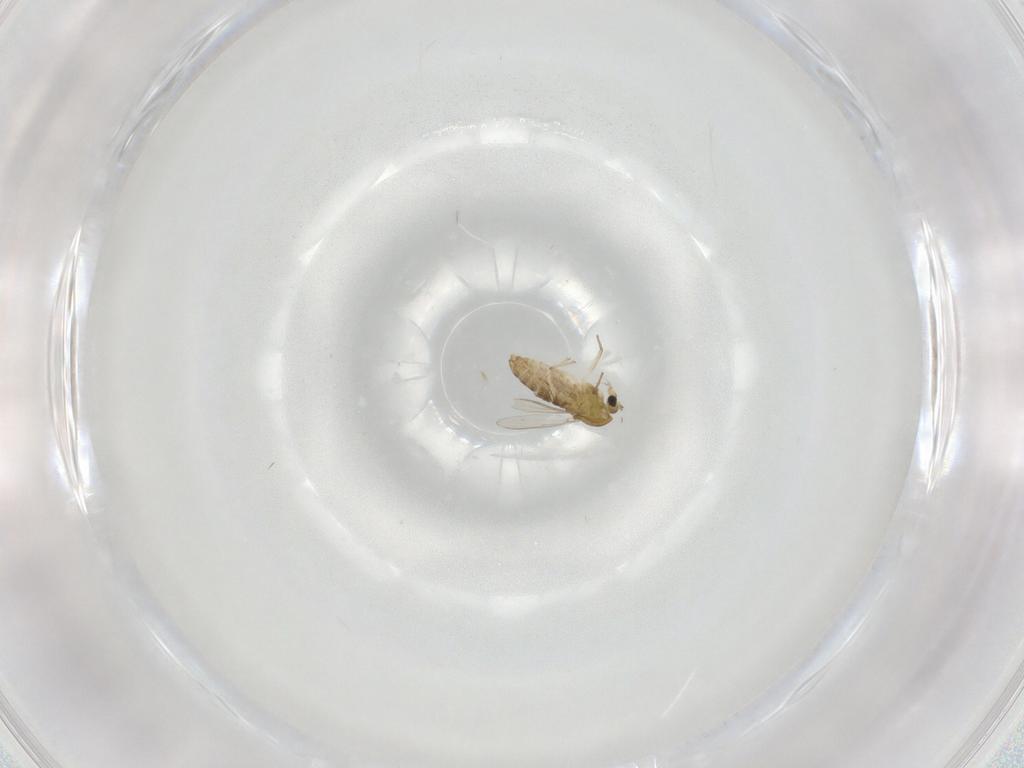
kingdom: Animalia
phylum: Arthropoda
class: Insecta
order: Diptera
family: Chironomidae
